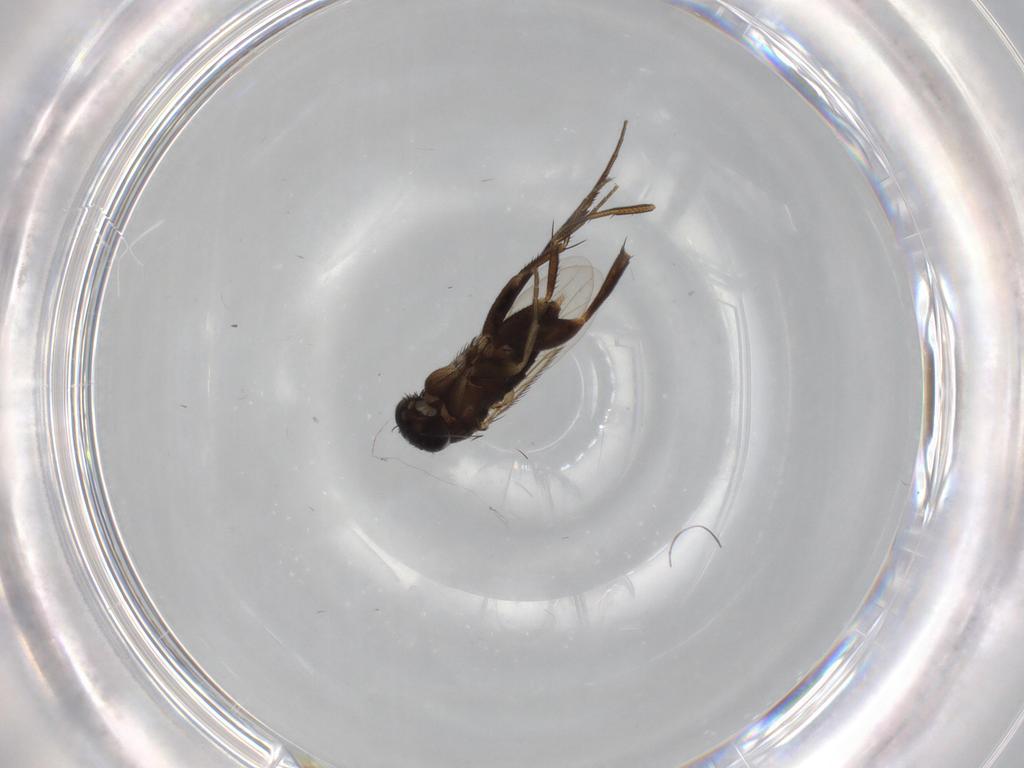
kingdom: Animalia
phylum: Arthropoda
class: Insecta
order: Diptera
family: Phoridae
